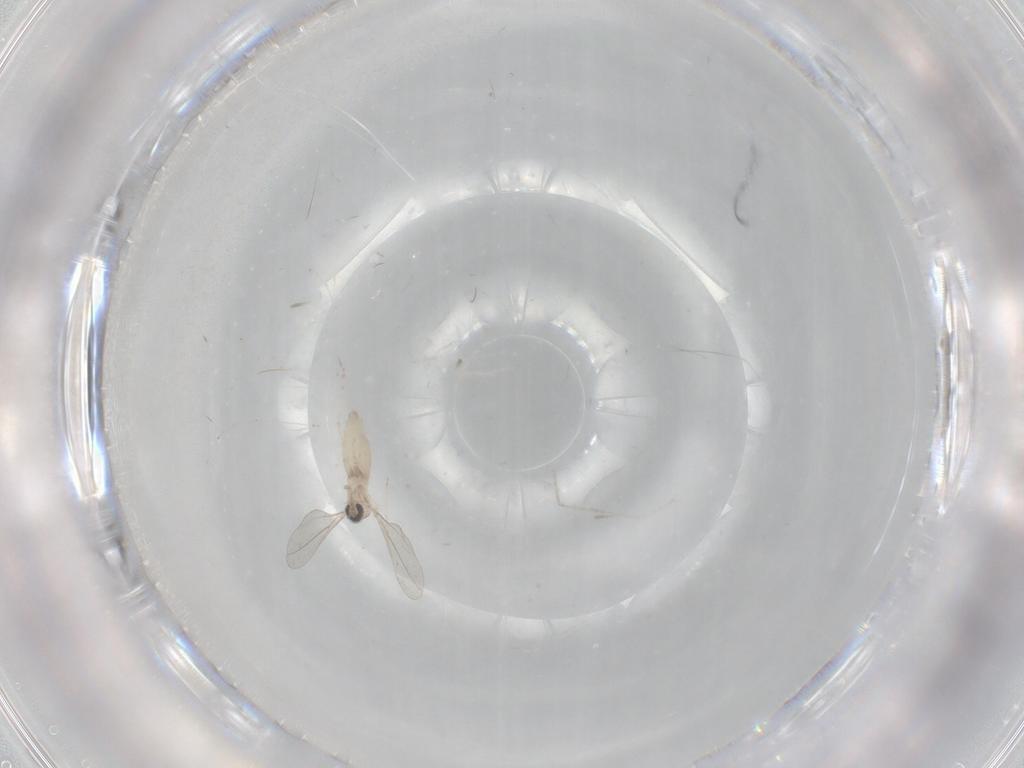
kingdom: Animalia
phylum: Arthropoda
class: Insecta
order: Diptera
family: Cecidomyiidae
